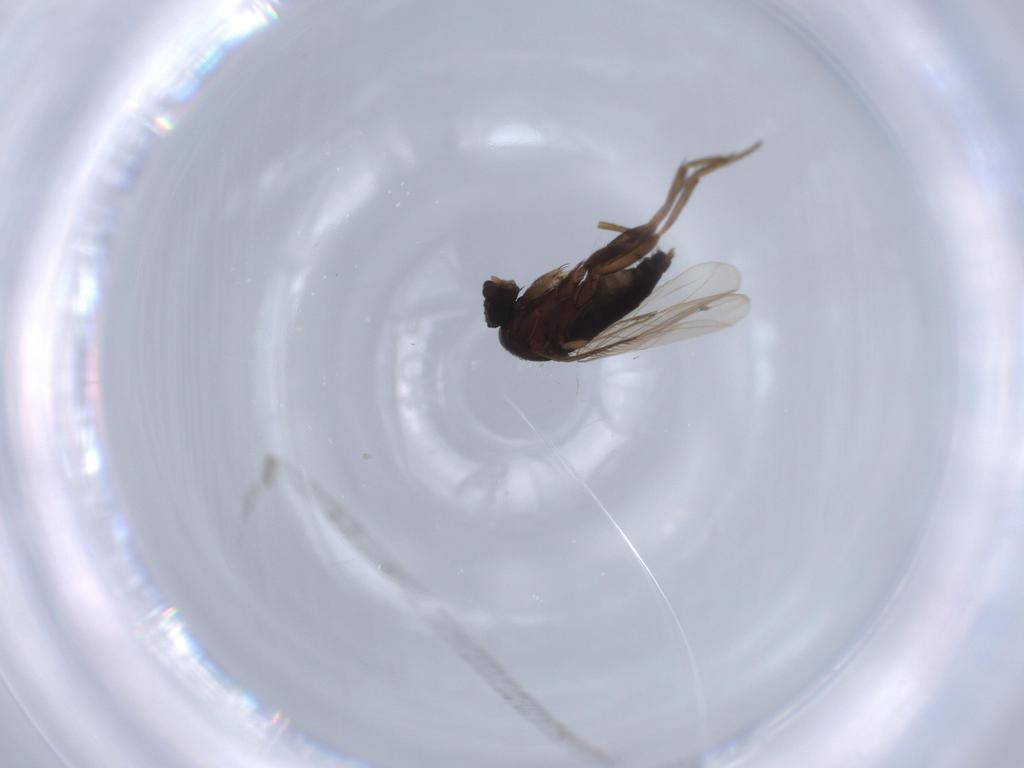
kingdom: Animalia
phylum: Arthropoda
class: Insecta
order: Diptera
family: Phoridae
